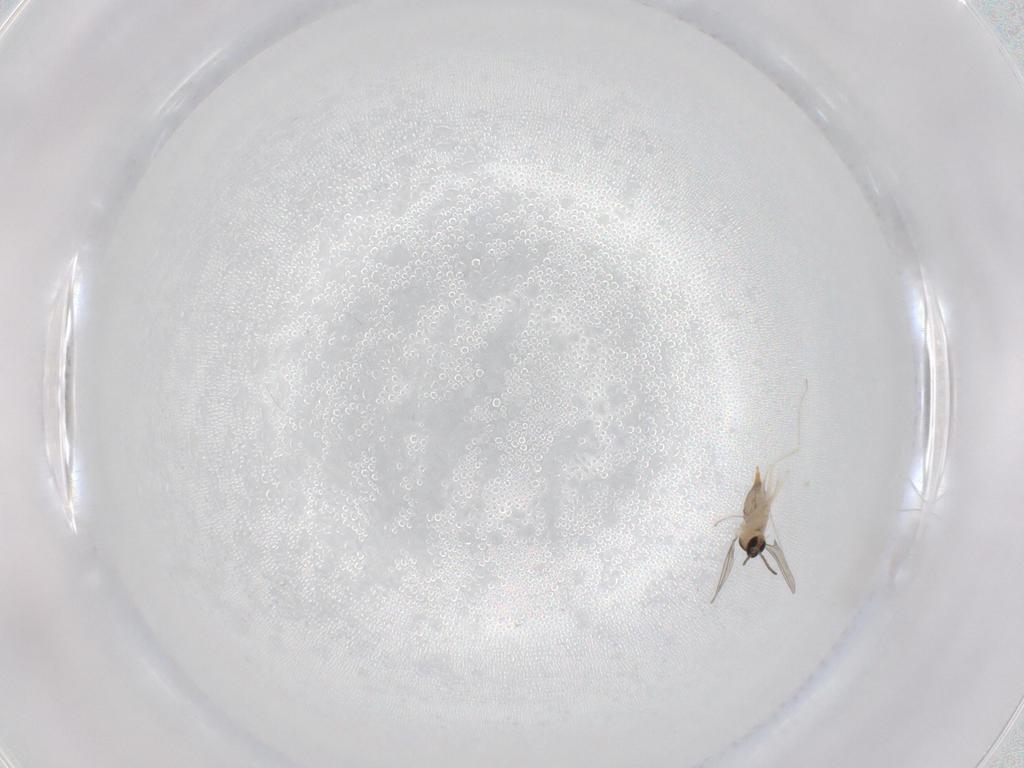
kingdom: Animalia
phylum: Arthropoda
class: Insecta
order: Diptera
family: Cecidomyiidae
